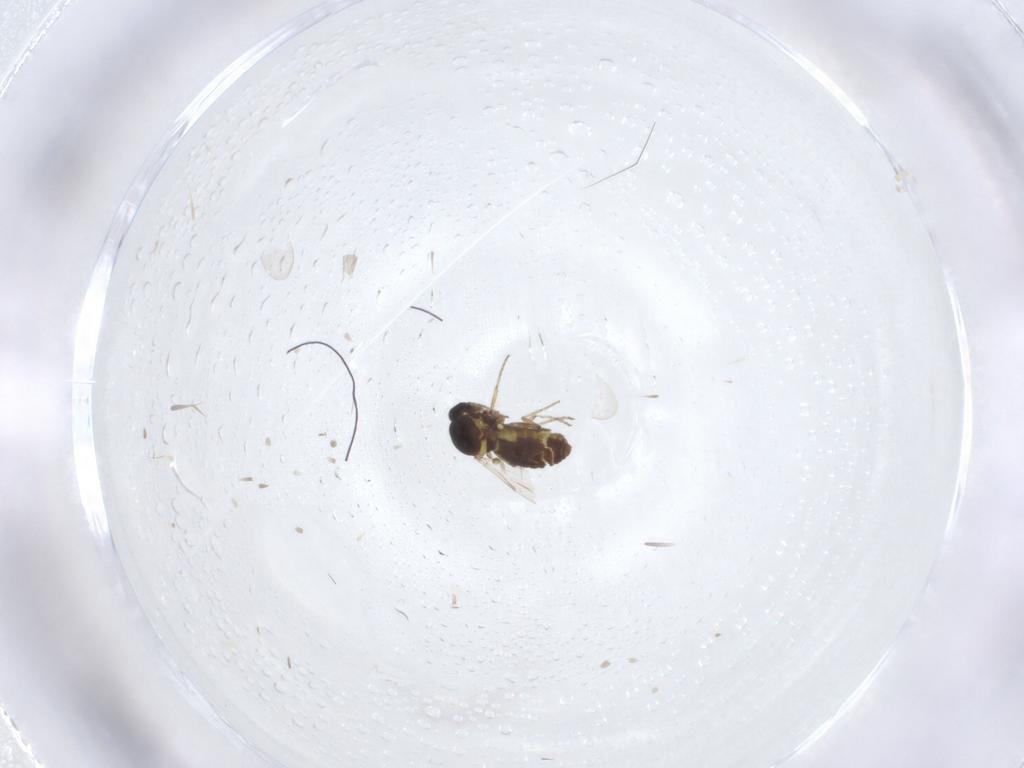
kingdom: Animalia
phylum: Arthropoda
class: Insecta
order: Diptera
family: Ceratopogonidae
